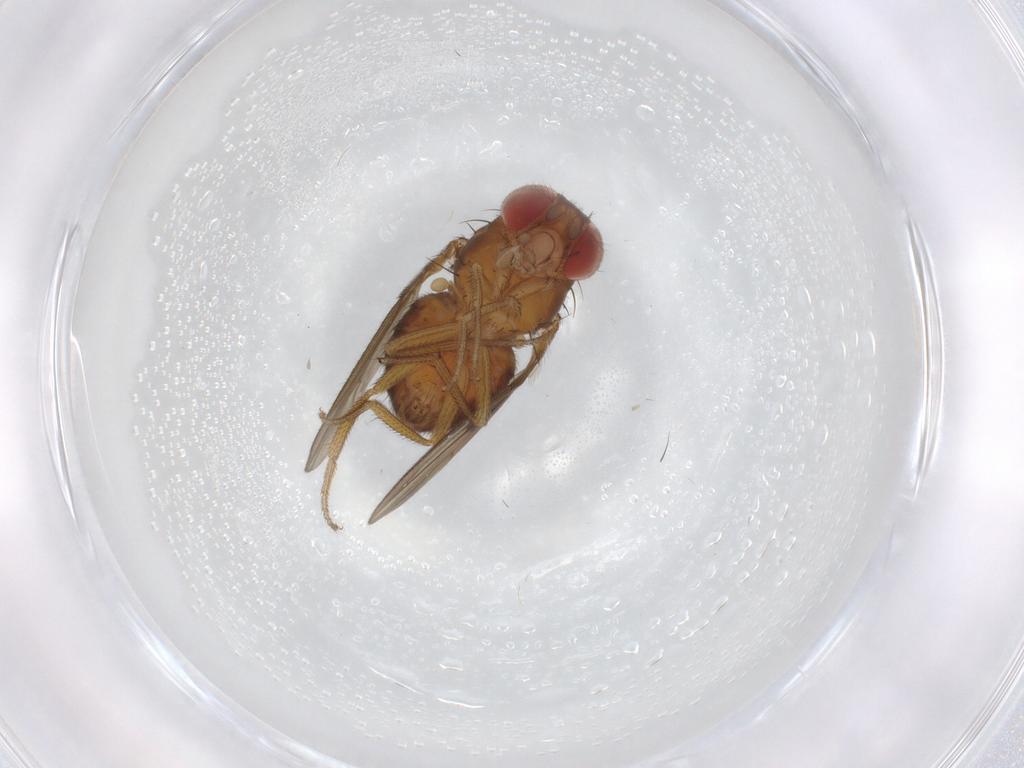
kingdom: Animalia
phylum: Arthropoda
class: Insecta
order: Diptera
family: Drosophilidae
